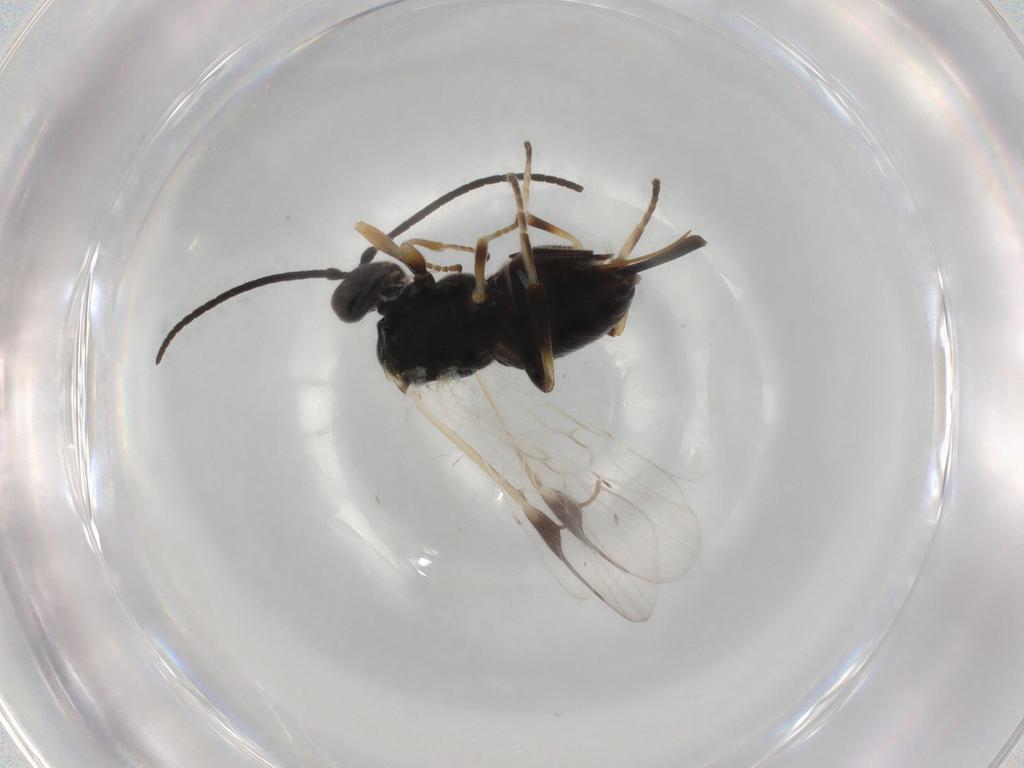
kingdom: Animalia
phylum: Arthropoda
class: Insecta
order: Hymenoptera
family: Braconidae
